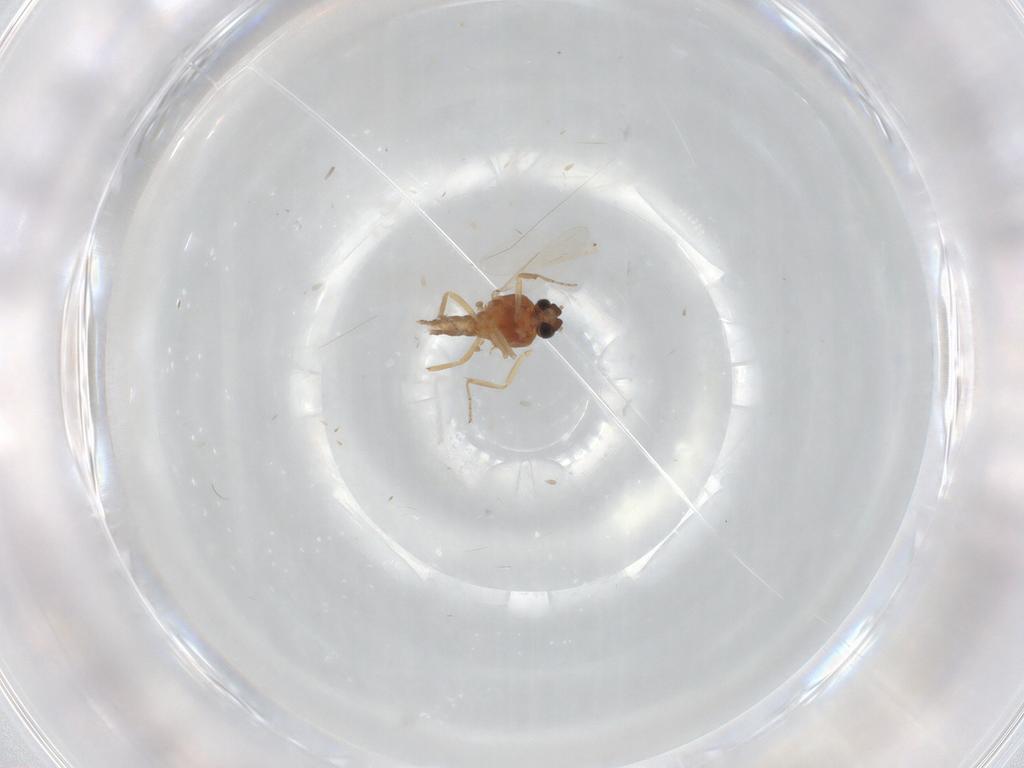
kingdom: Animalia
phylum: Arthropoda
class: Insecta
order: Diptera
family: Ceratopogonidae
